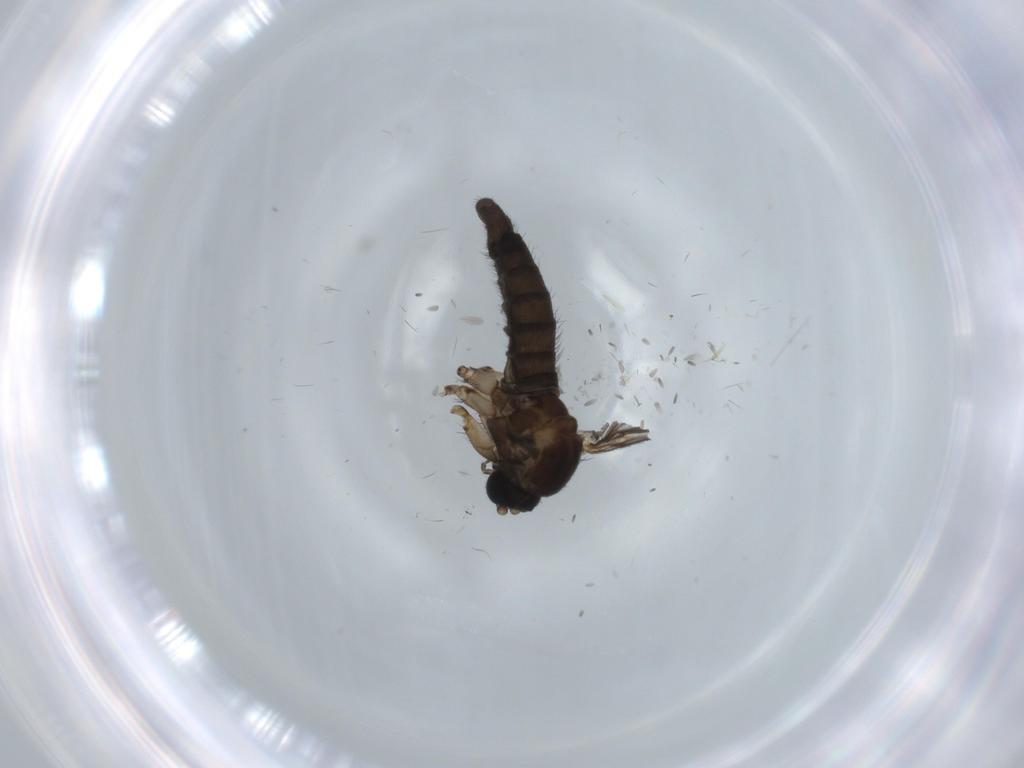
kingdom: Animalia
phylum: Arthropoda
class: Insecta
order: Diptera
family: Sciaridae
